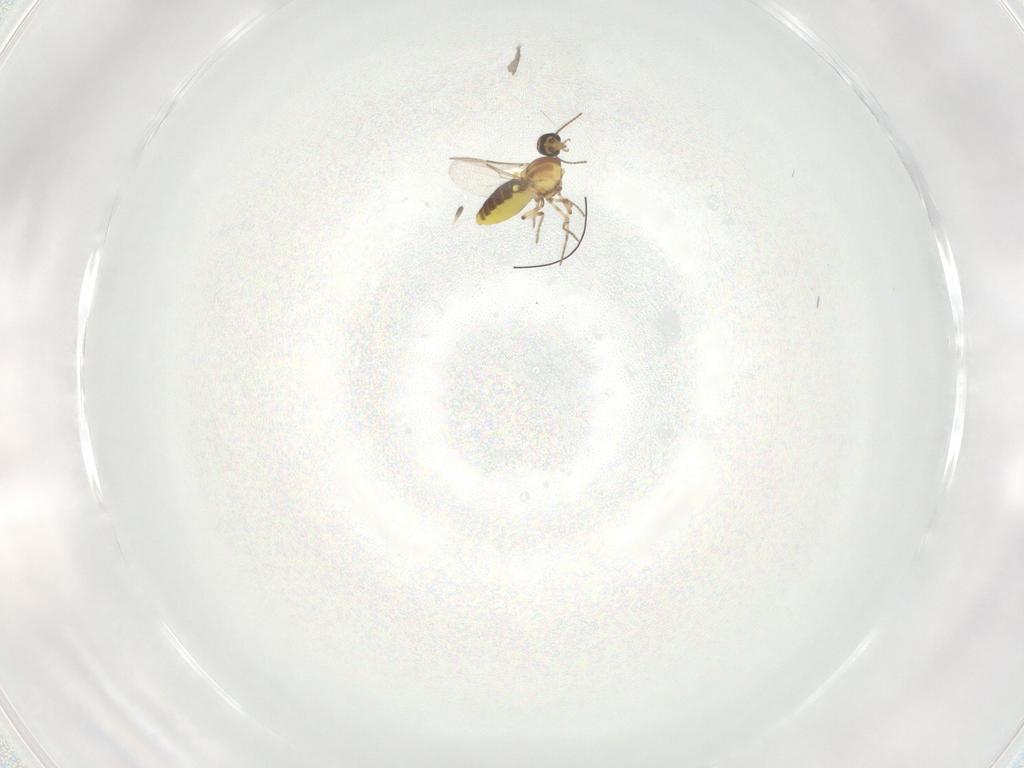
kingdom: Animalia
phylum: Arthropoda
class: Insecta
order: Diptera
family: Ceratopogonidae
